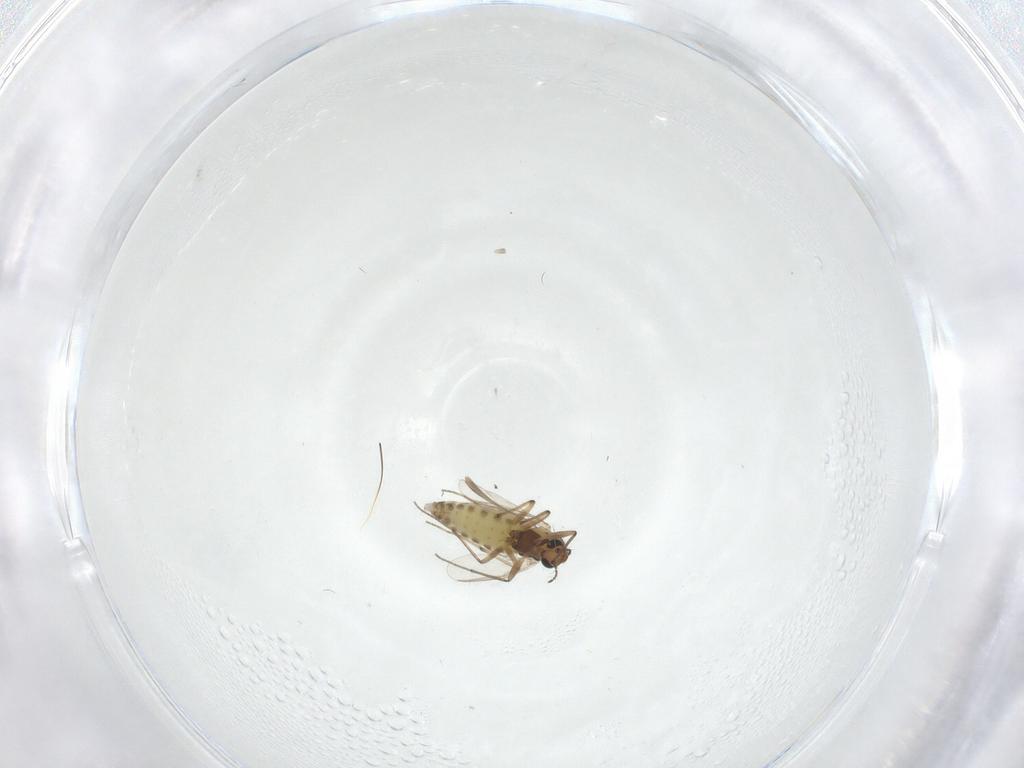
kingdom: Animalia
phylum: Arthropoda
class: Insecta
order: Diptera
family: Chironomidae
